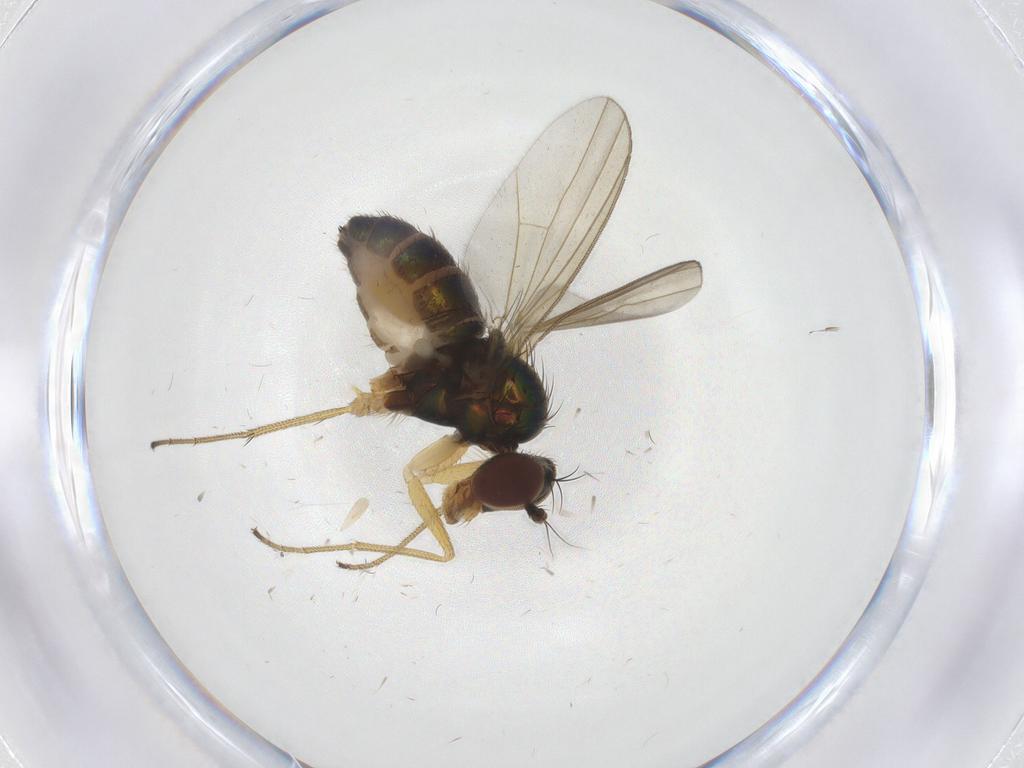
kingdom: Animalia
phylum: Arthropoda
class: Insecta
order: Diptera
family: Dolichopodidae
